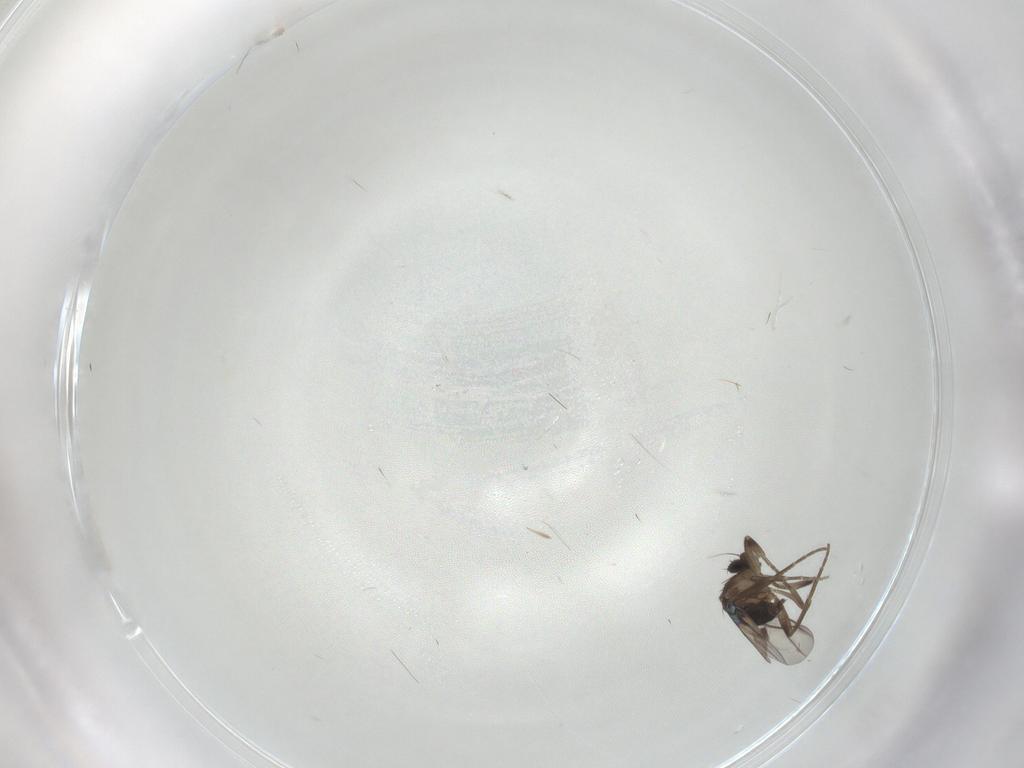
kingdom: Animalia
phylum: Arthropoda
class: Insecta
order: Diptera
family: Phoridae
